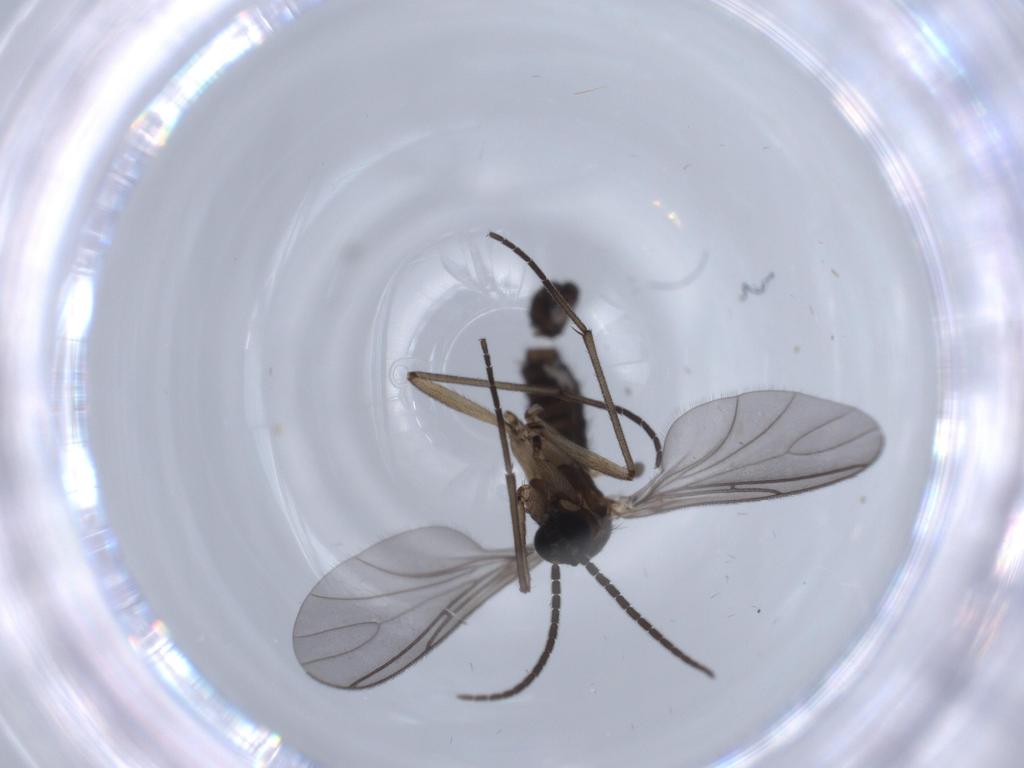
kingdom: Animalia
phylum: Arthropoda
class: Insecta
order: Diptera
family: Sciaridae
